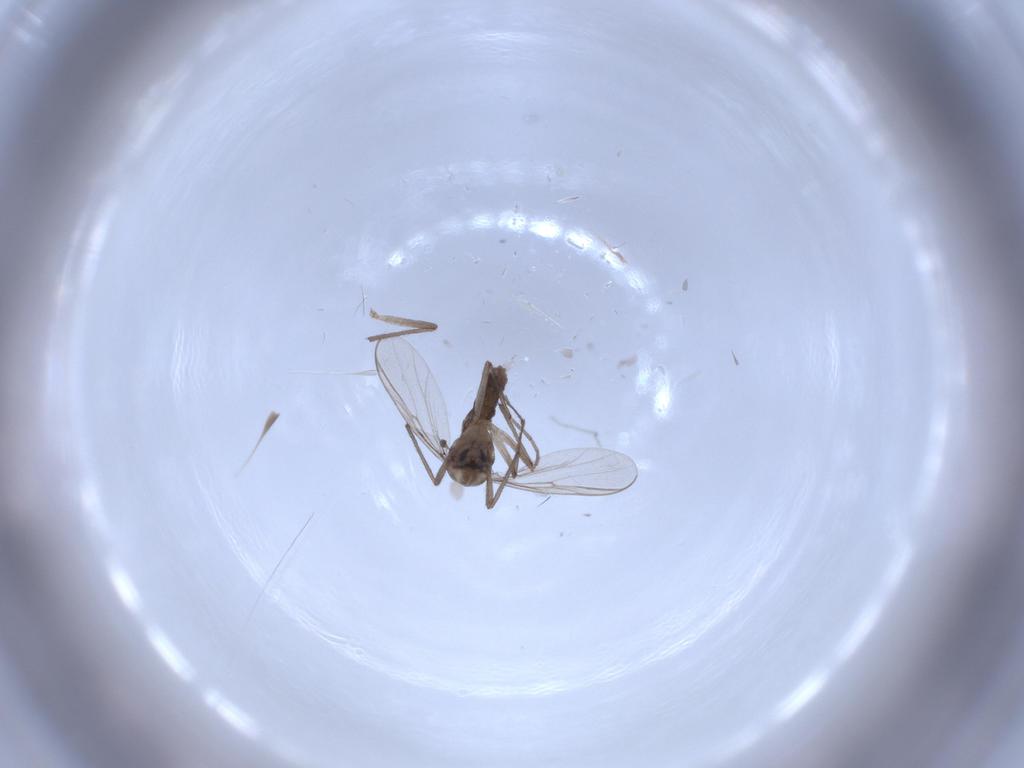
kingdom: Animalia
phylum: Arthropoda
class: Insecta
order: Diptera
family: Chironomidae
